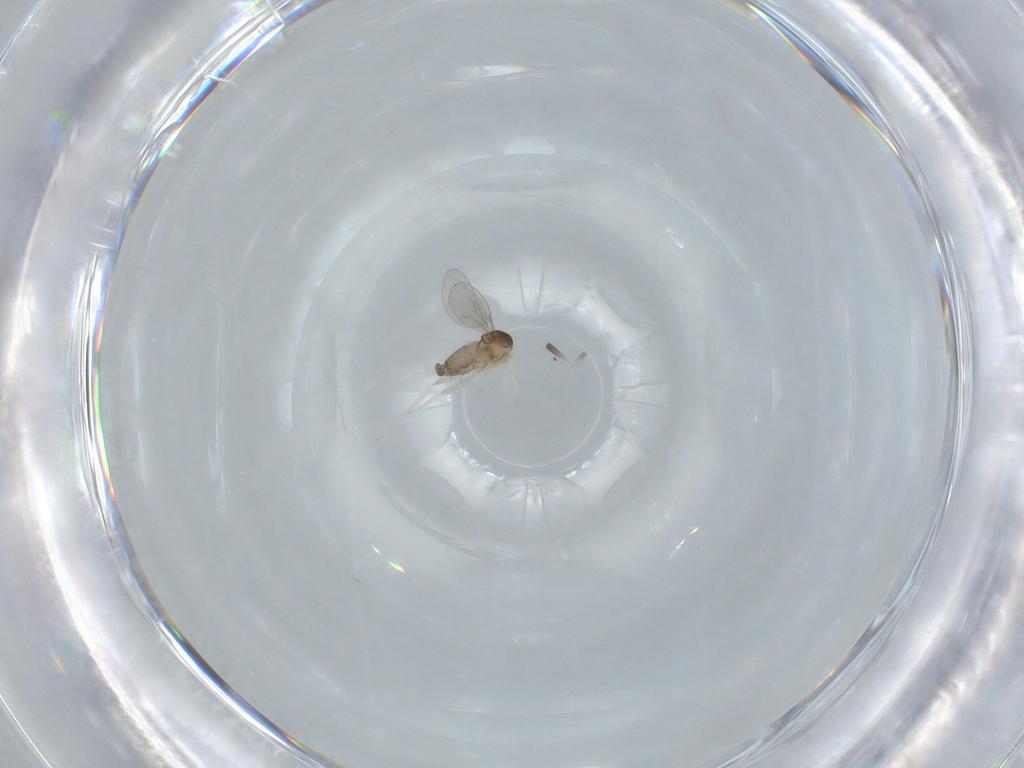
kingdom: Animalia
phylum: Arthropoda
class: Insecta
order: Diptera
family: Cecidomyiidae
